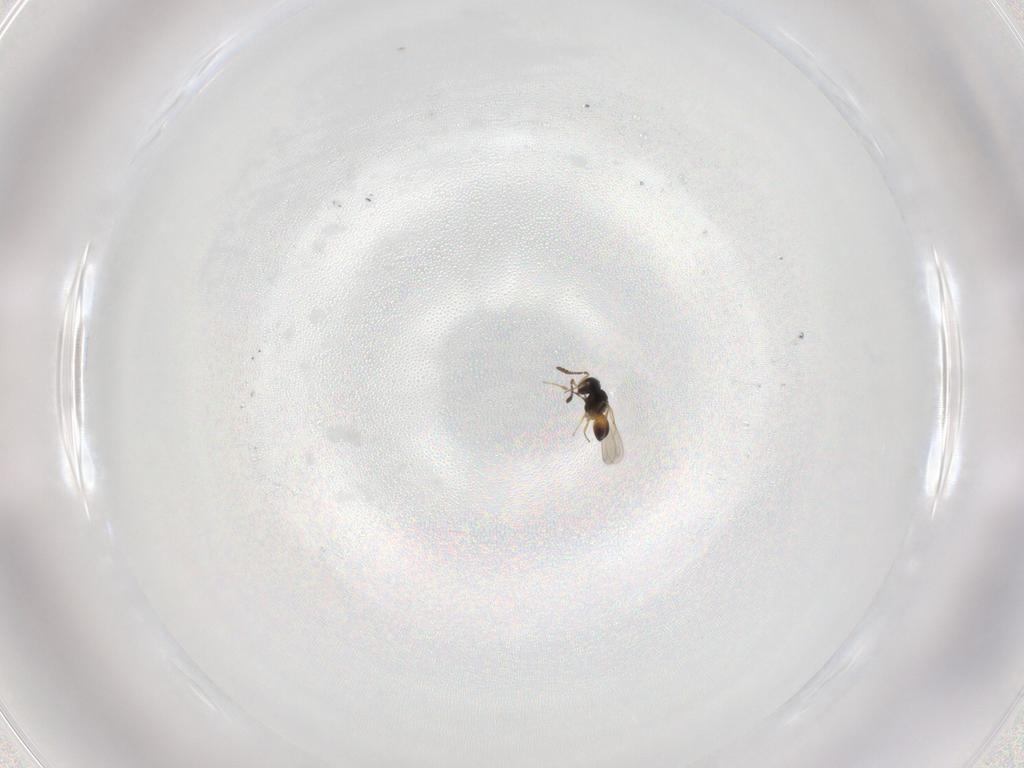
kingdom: Animalia
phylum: Arthropoda
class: Insecta
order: Hymenoptera
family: Scelionidae
